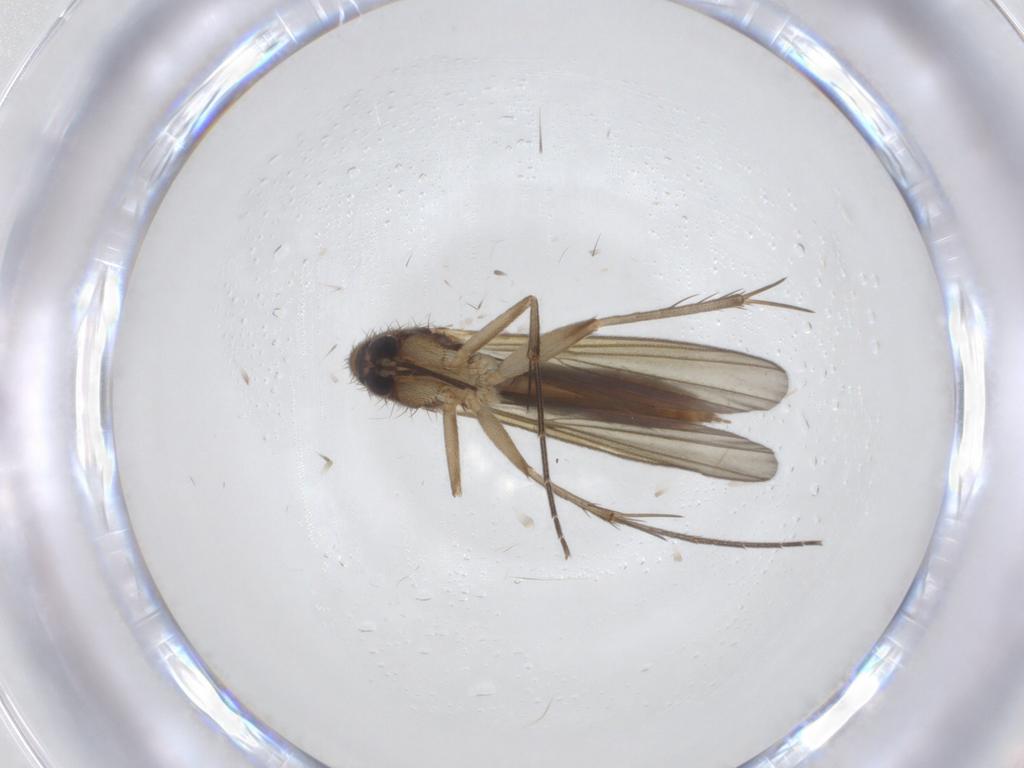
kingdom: Animalia
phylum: Arthropoda
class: Insecta
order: Diptera
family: Mycetophilidae
